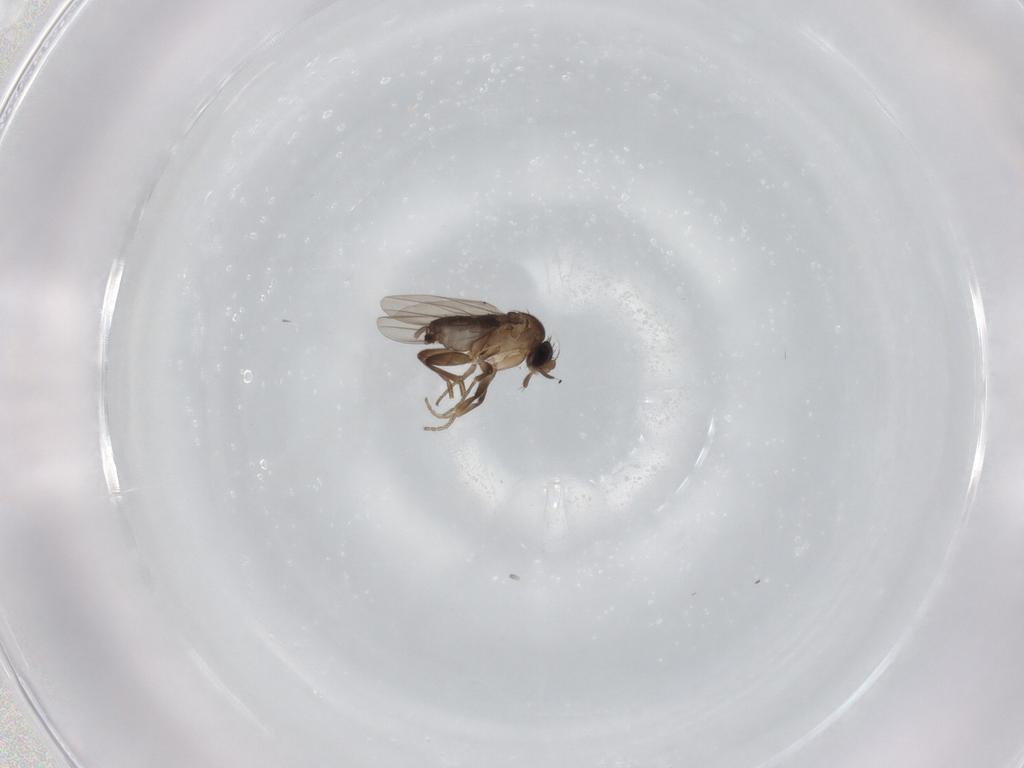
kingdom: Animalia
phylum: Arthropoda
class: Insecta
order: Diptera
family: Phoridae
